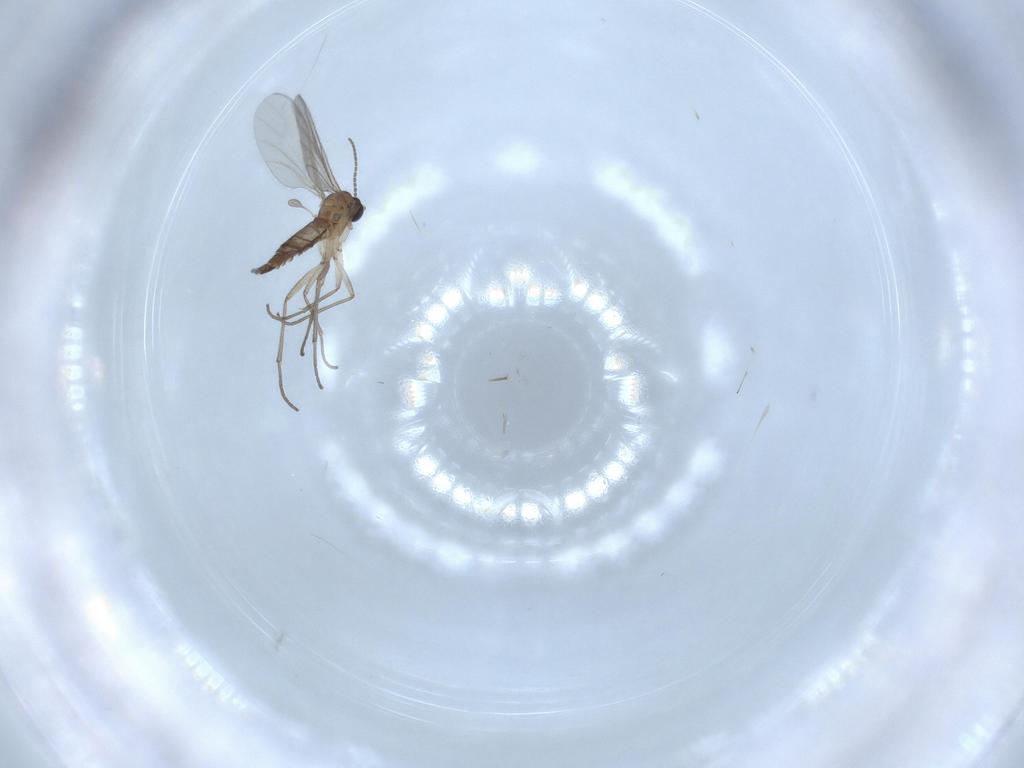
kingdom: Animalia
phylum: Arthropoda
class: Insecta
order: Diptera
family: Sciaridae
